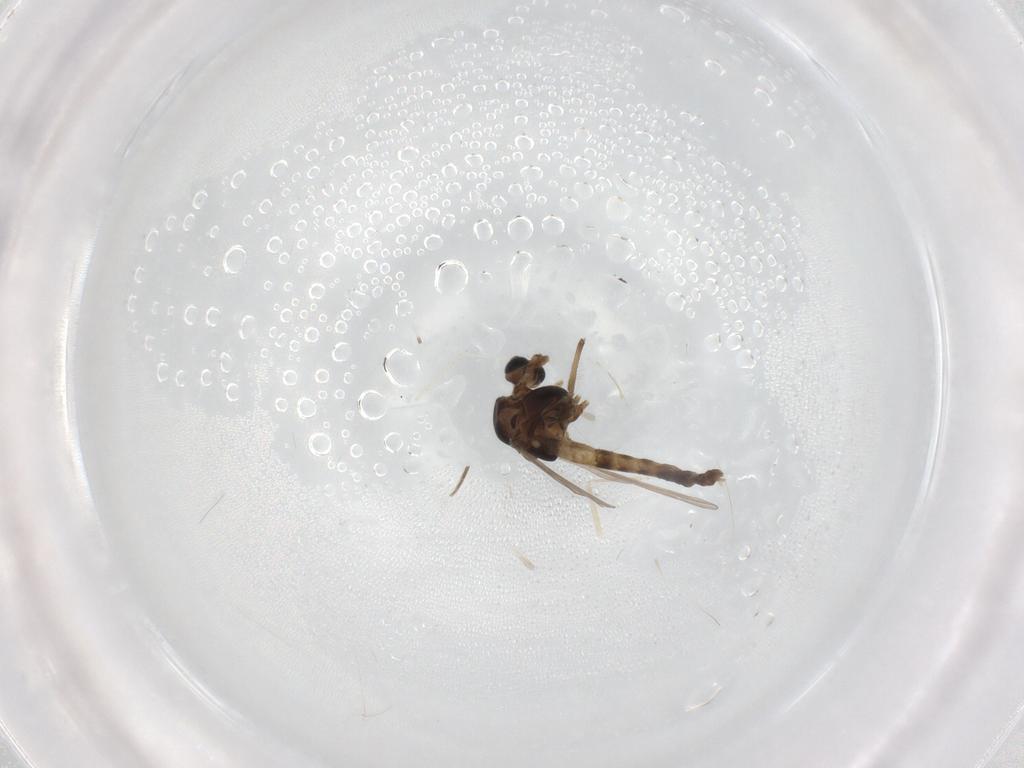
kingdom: Animalia
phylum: Arthropoda
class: Insecta
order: Diptera
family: Chironomidae
